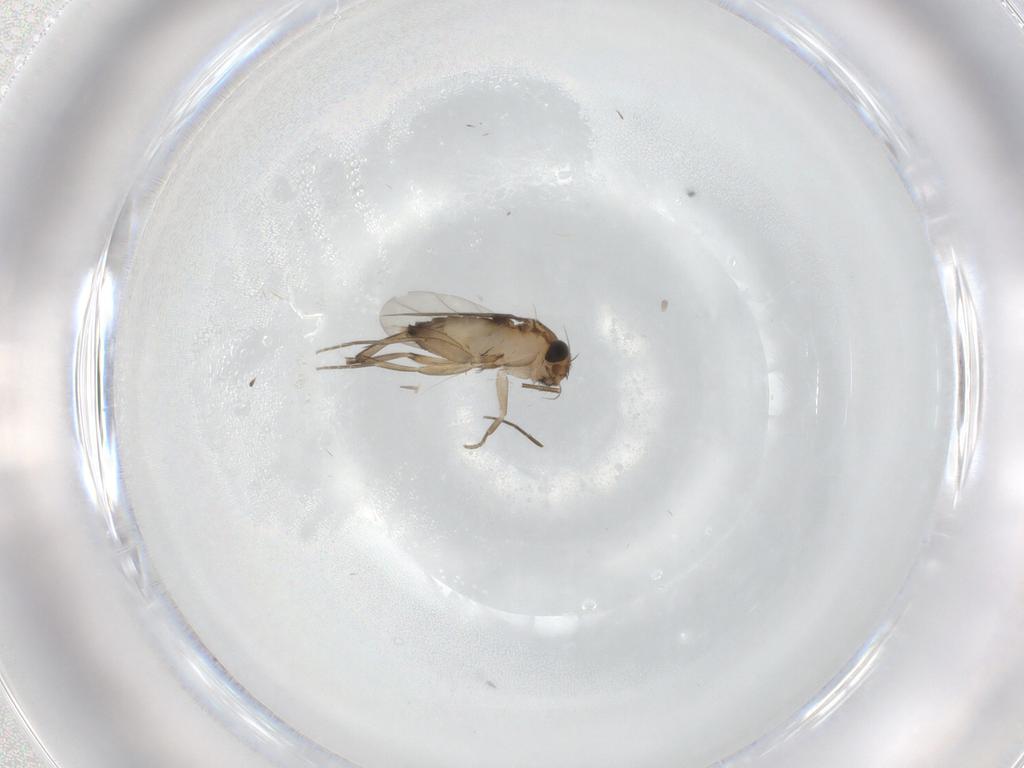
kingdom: Animalia
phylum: Arthropoda
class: Insecta
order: Diptera
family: Phoridae
